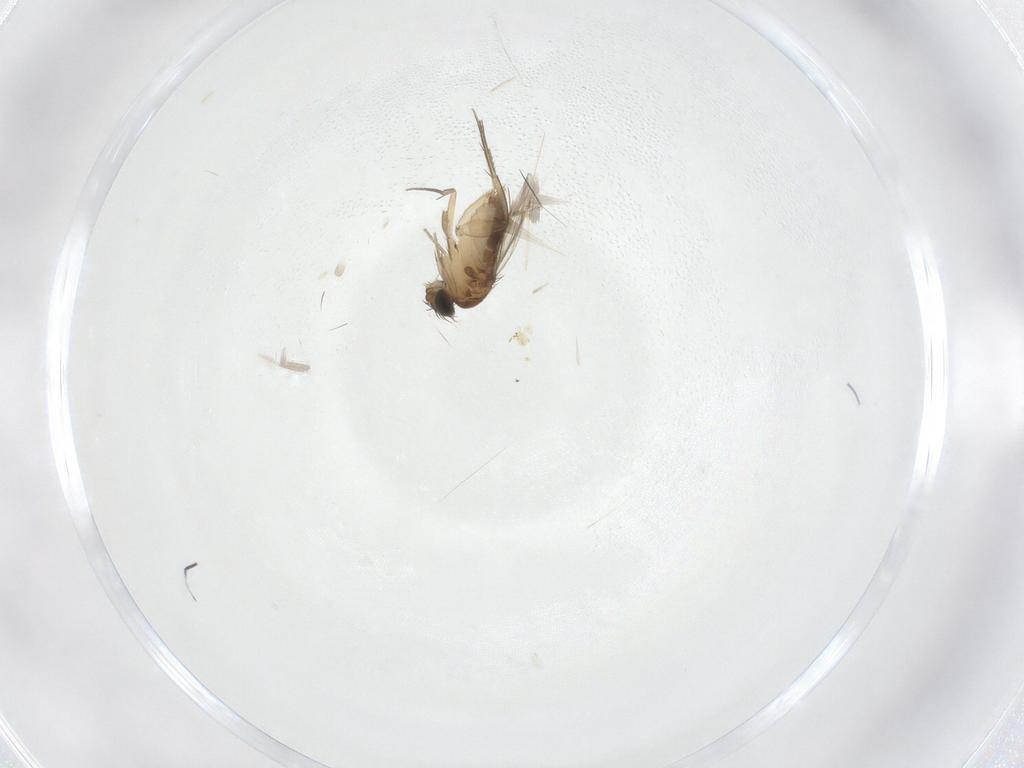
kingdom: Animalia
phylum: Arthropoda
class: Insecta
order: Diptera
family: Phoridae
